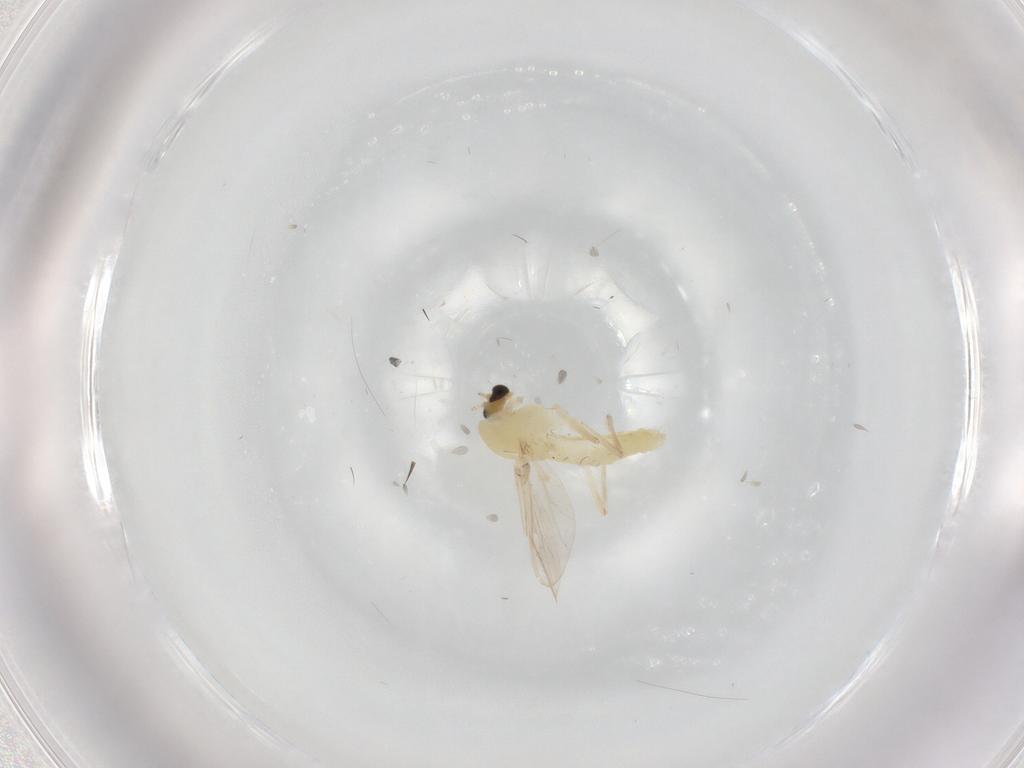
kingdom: Animalia
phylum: Arthropoda
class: Insecta
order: Diptera
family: Chironomidae
